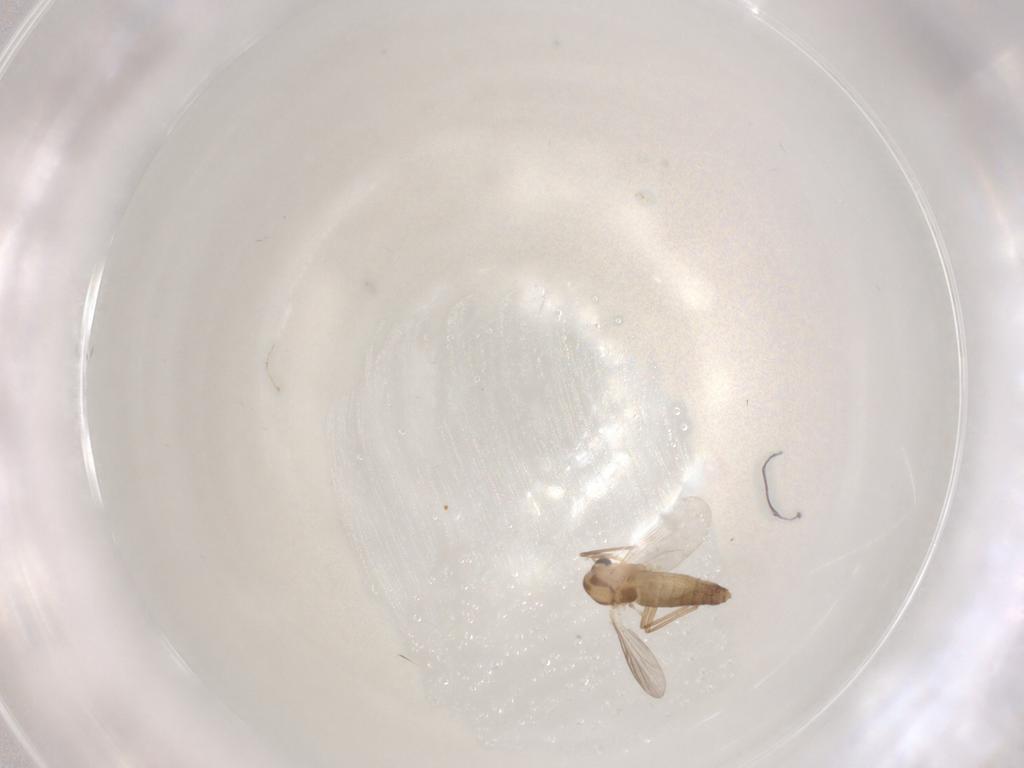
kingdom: Animalia
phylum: Arthropoda
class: Insecta
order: Diptera
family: Chironomidae
